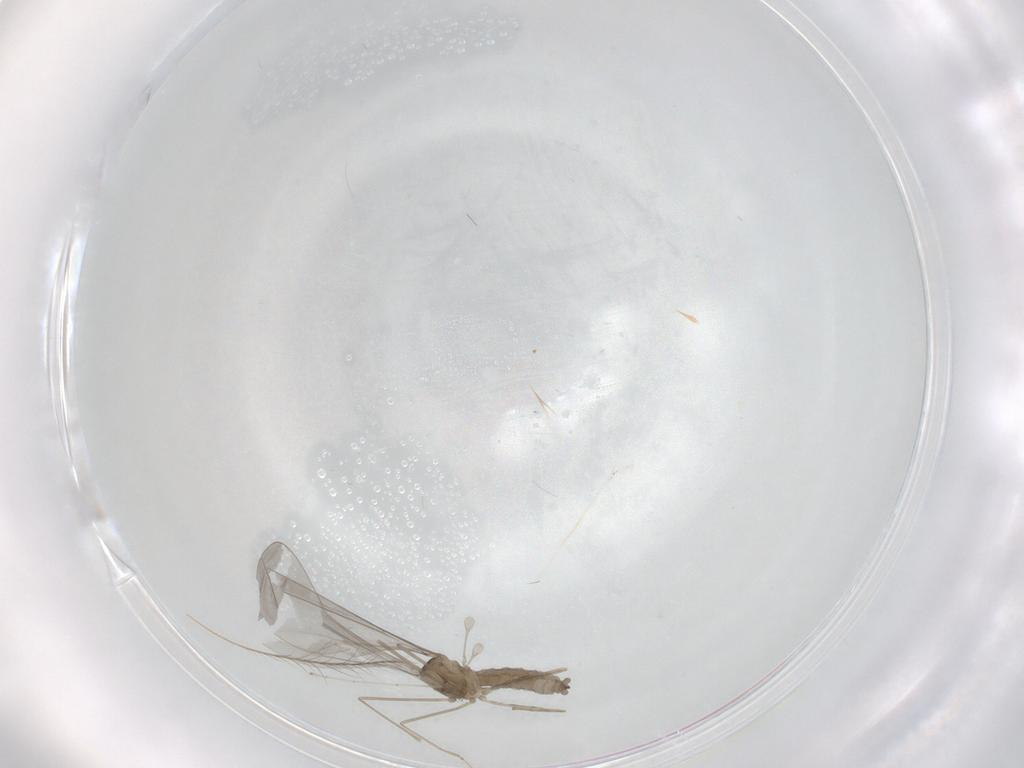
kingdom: Animalia
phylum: Arthropoda
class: Insecta
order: Diptera
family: Cecidomyiidae
